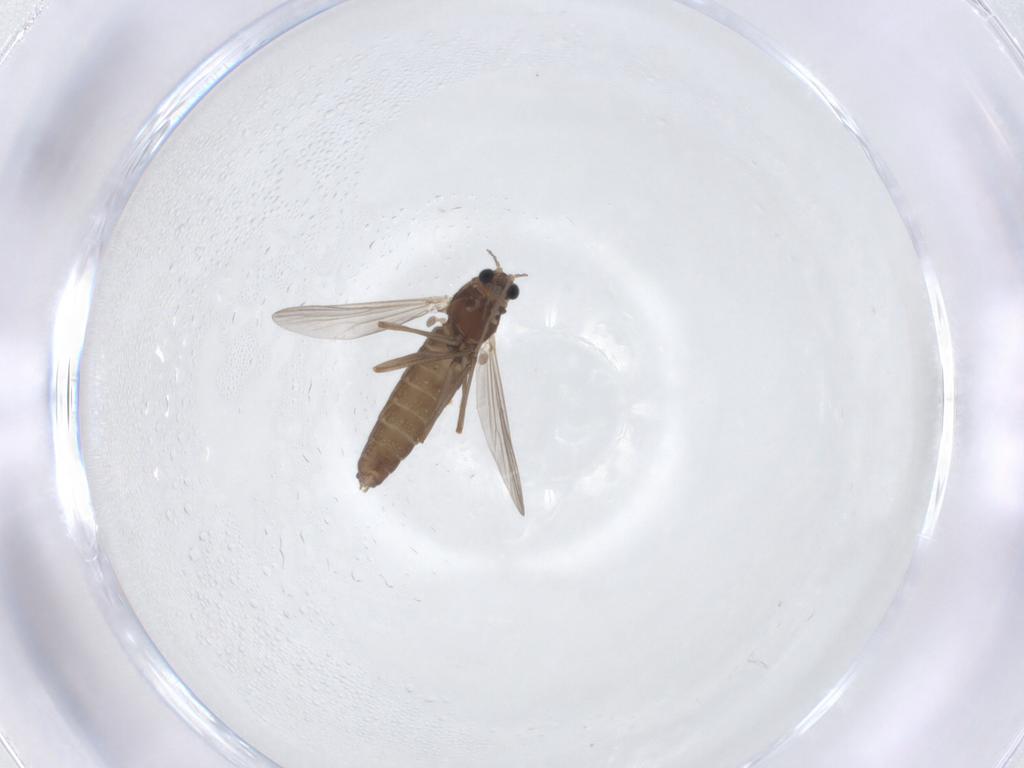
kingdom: Animalia
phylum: Arthropoda
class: Insecta
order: Diptera
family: Chironomidae
